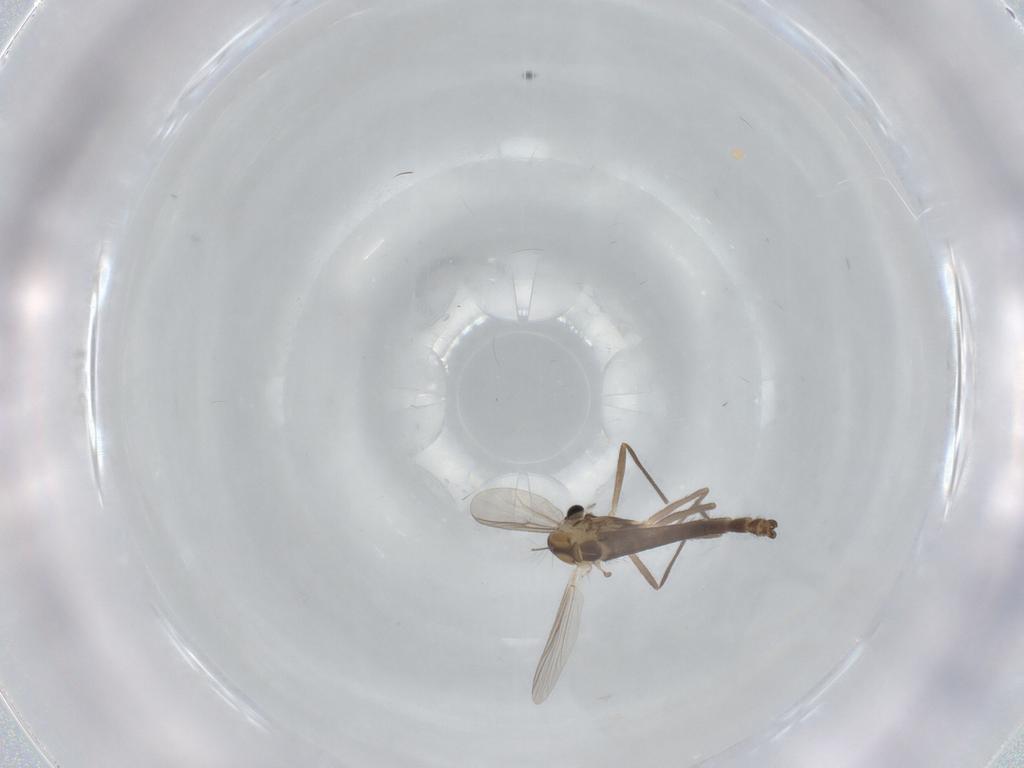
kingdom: Animalia
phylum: Arthropoda
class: Insecta
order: Diptera
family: Chironomidae
